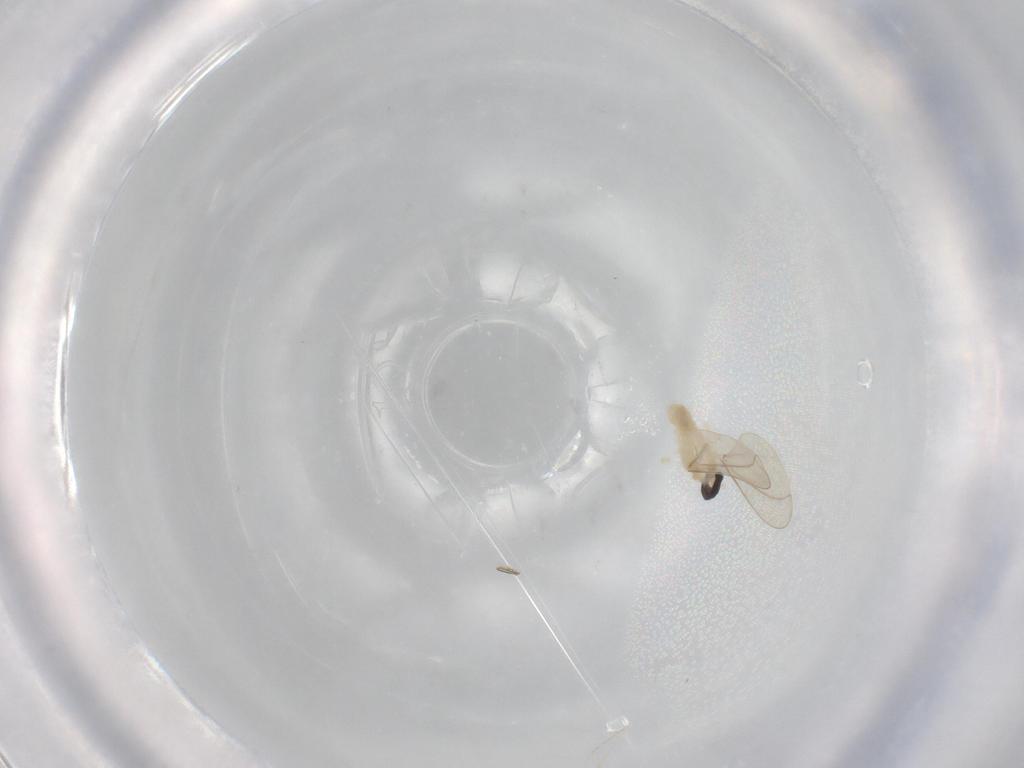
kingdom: Animalia
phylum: Arthropoda
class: Insecta
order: Diptera
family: Cecidomyiidae
